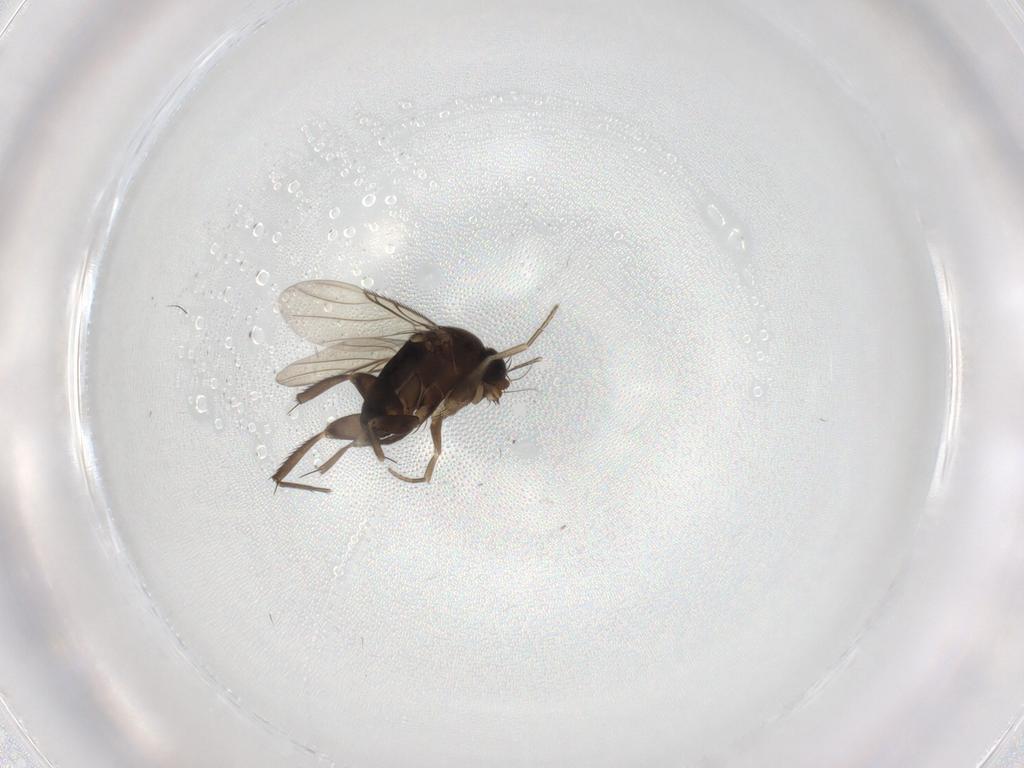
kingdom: Animalia
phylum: Arthropoda
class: Insecta
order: Diptera
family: Phoridae
